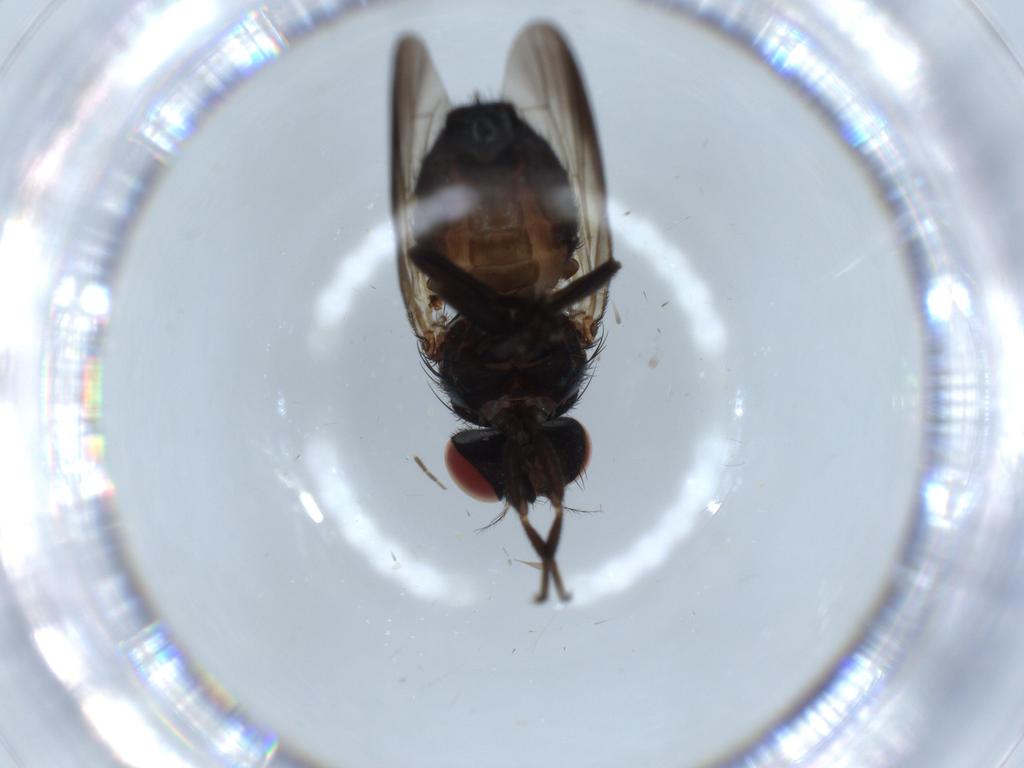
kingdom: Animalia
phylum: Arthropoda
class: Insecta
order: Diptera
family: Lonchaeidae
